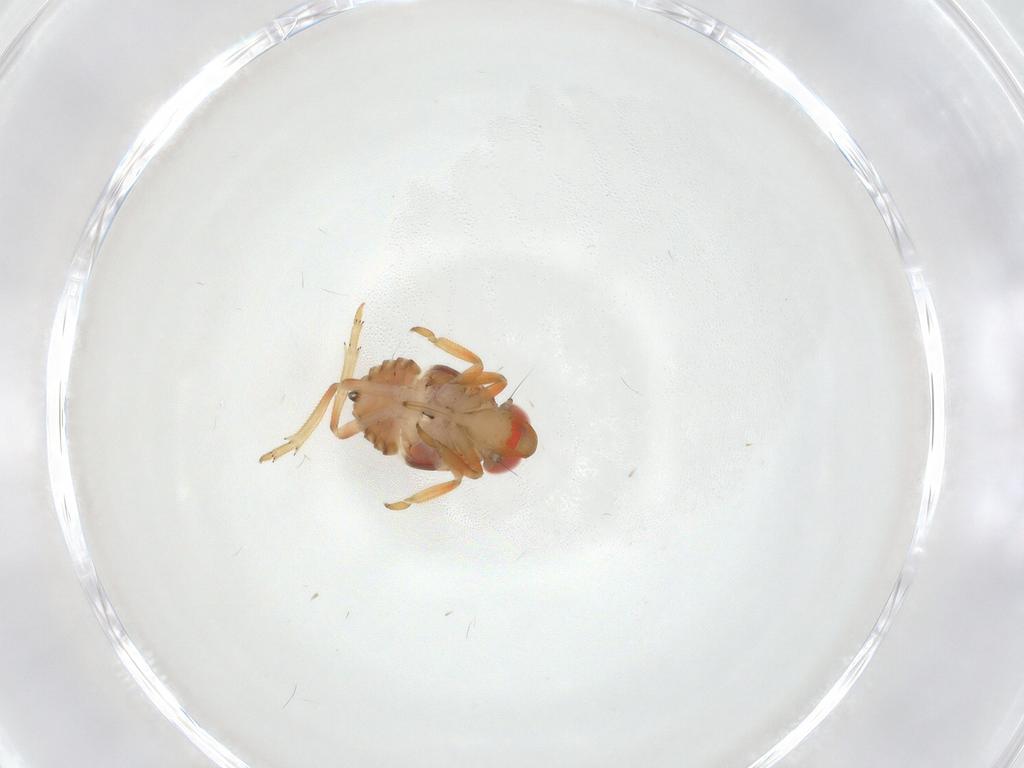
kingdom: Animalia
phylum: Arthropoda
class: Insecta
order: Hemiptera
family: Issidae
